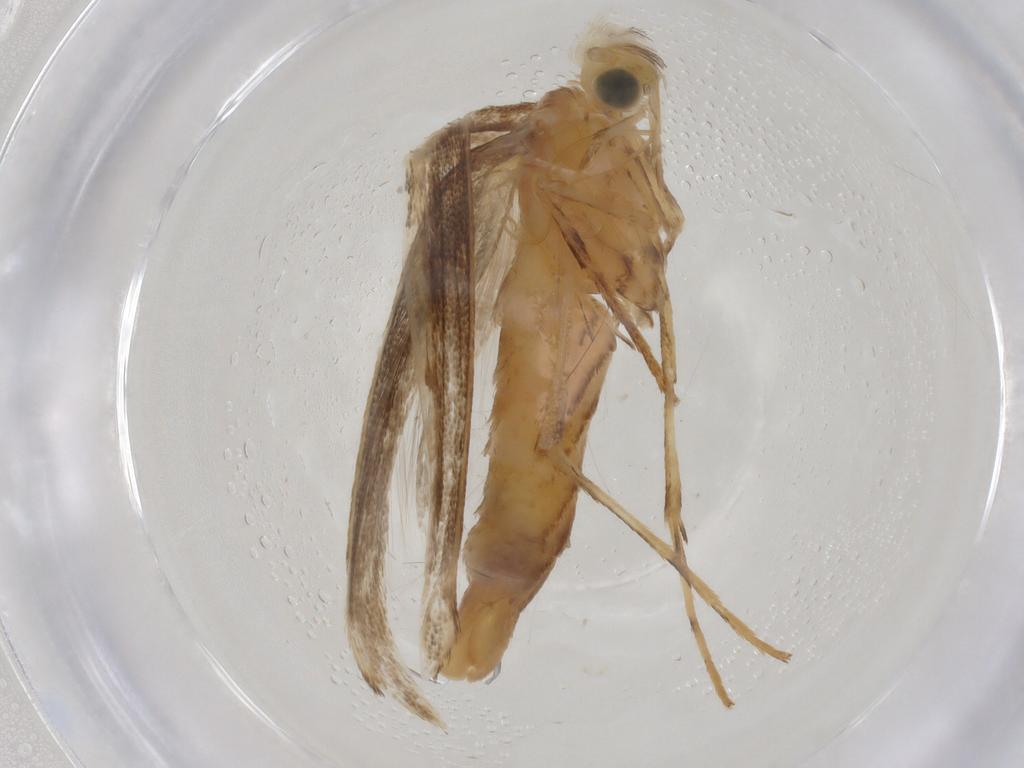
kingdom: Animalia
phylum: Arthropoda
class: Insecta
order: Lepidoptera
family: Gracillariidae
